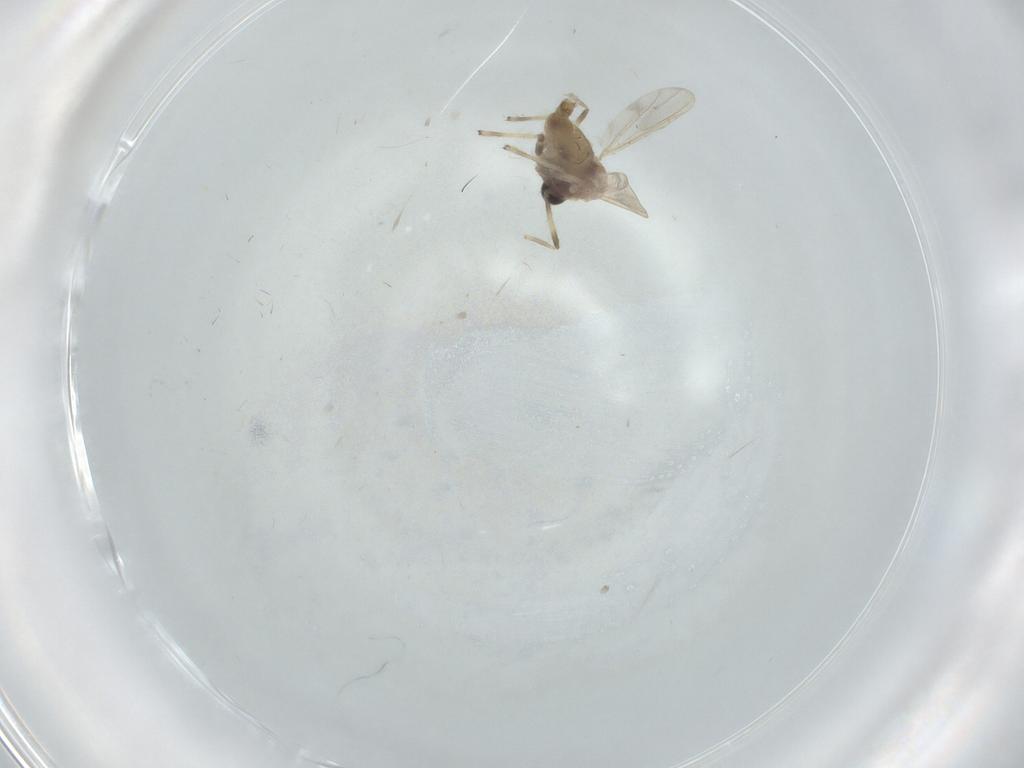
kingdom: Animalia
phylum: Arthropoda
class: Insecta
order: Diptera
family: Chironomidae
